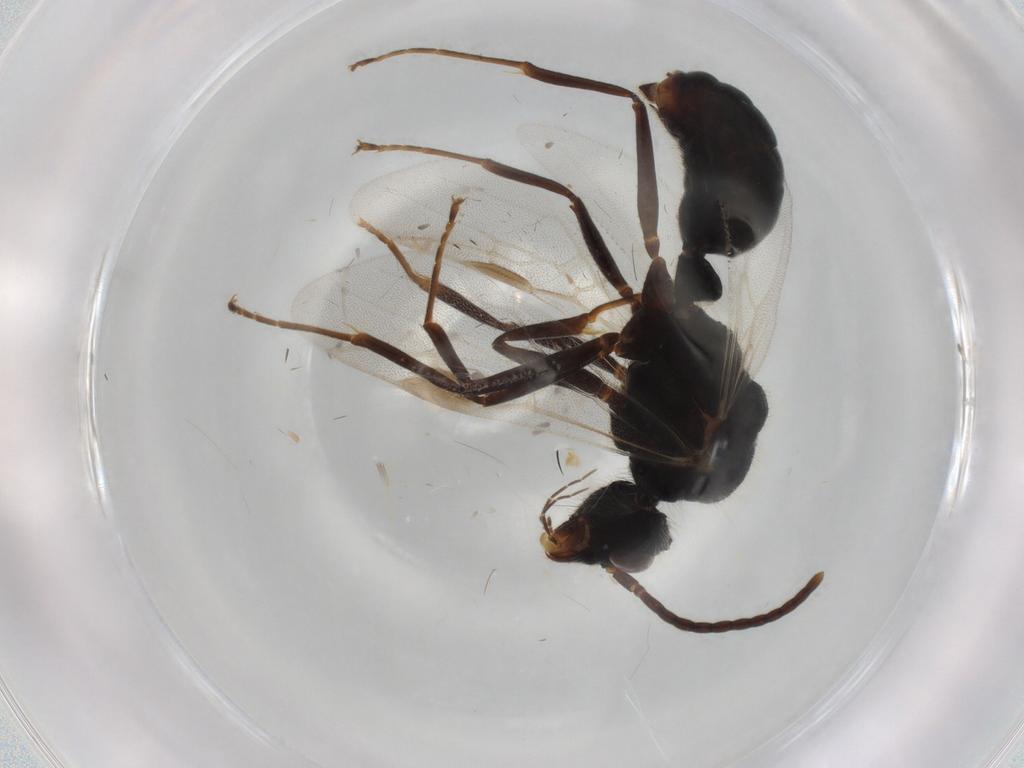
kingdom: Animalia
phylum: Arthropoda
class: Insecta
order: Hymenoptera
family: Formicidae
